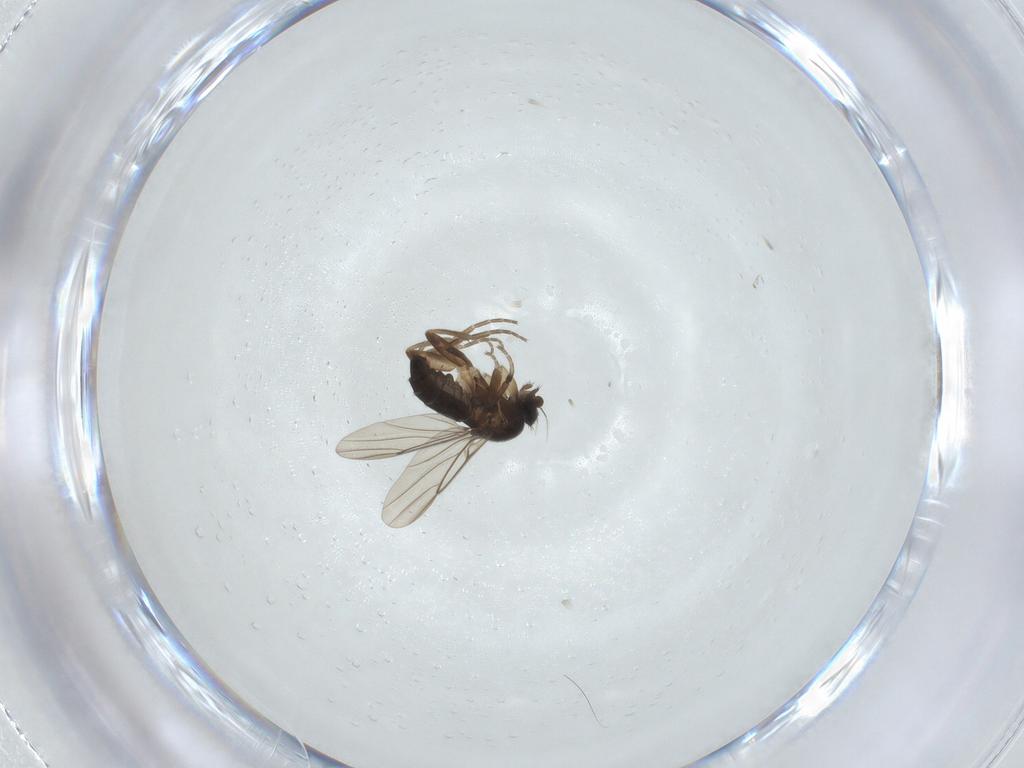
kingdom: Animalia
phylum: Arthropoda
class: Insecta
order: Diptera
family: Phoridae
